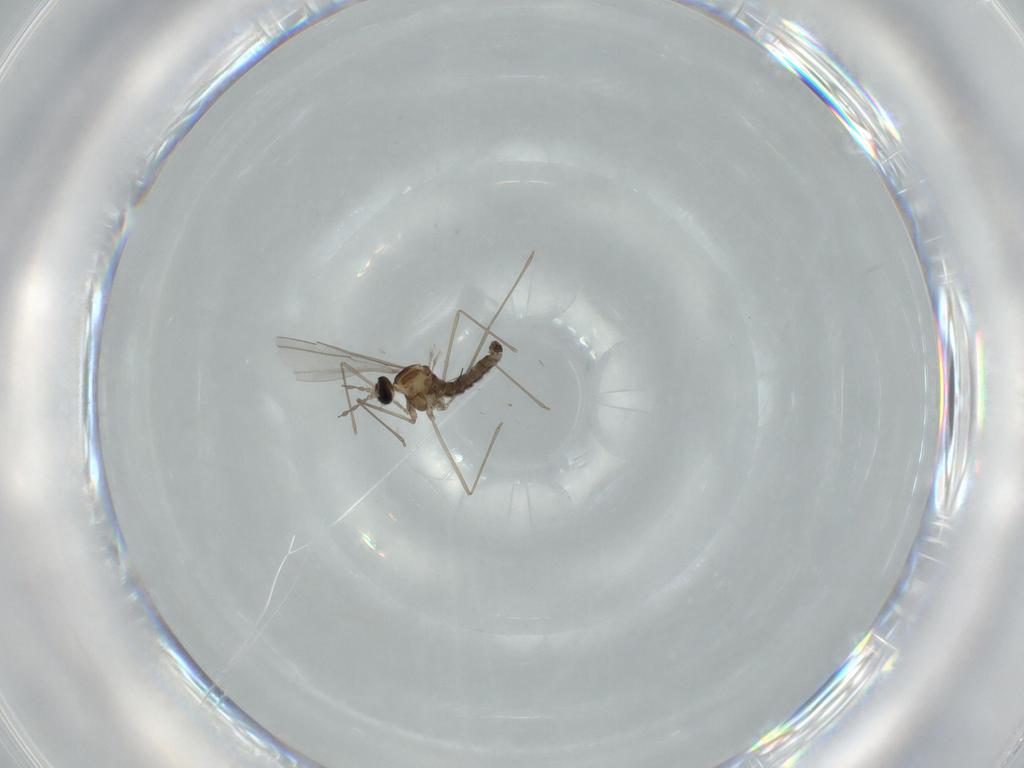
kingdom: Animalia
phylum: Arthropoda
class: Insecta
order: Diptera
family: Cecidomyiidae
